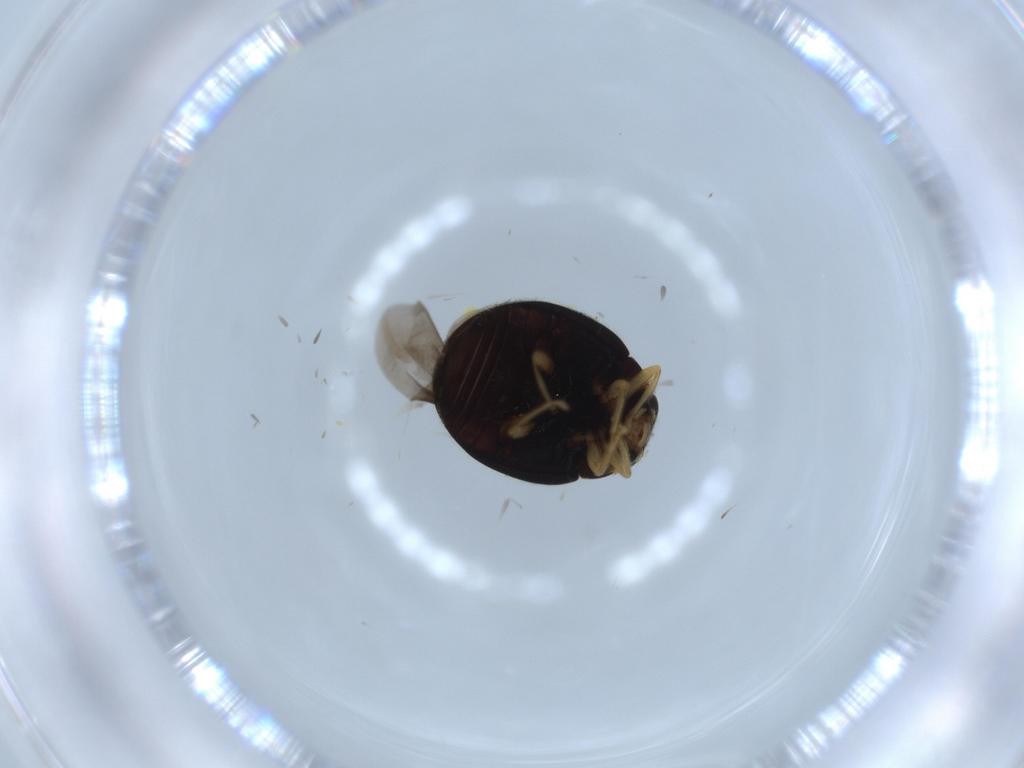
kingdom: Animalia
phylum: Arthropoda
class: Insecta
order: Coleoptera
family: Coccinellidae
